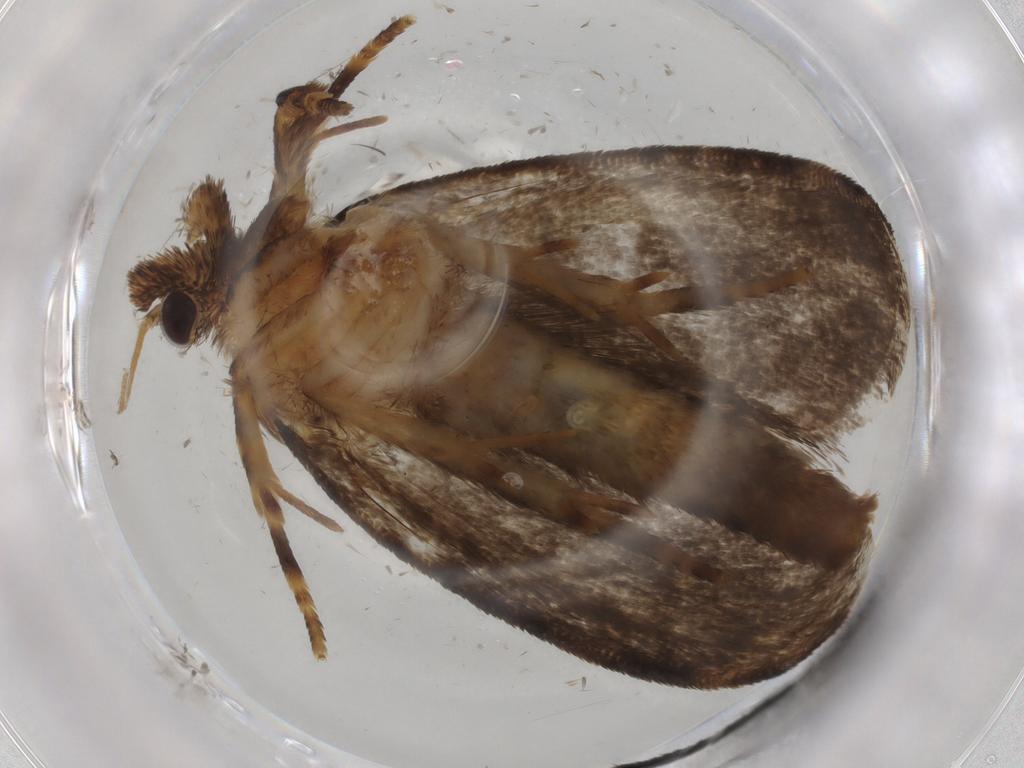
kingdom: Animalia
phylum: Arthropoda
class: Insecta
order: Lepidoptera
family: Tineidae
